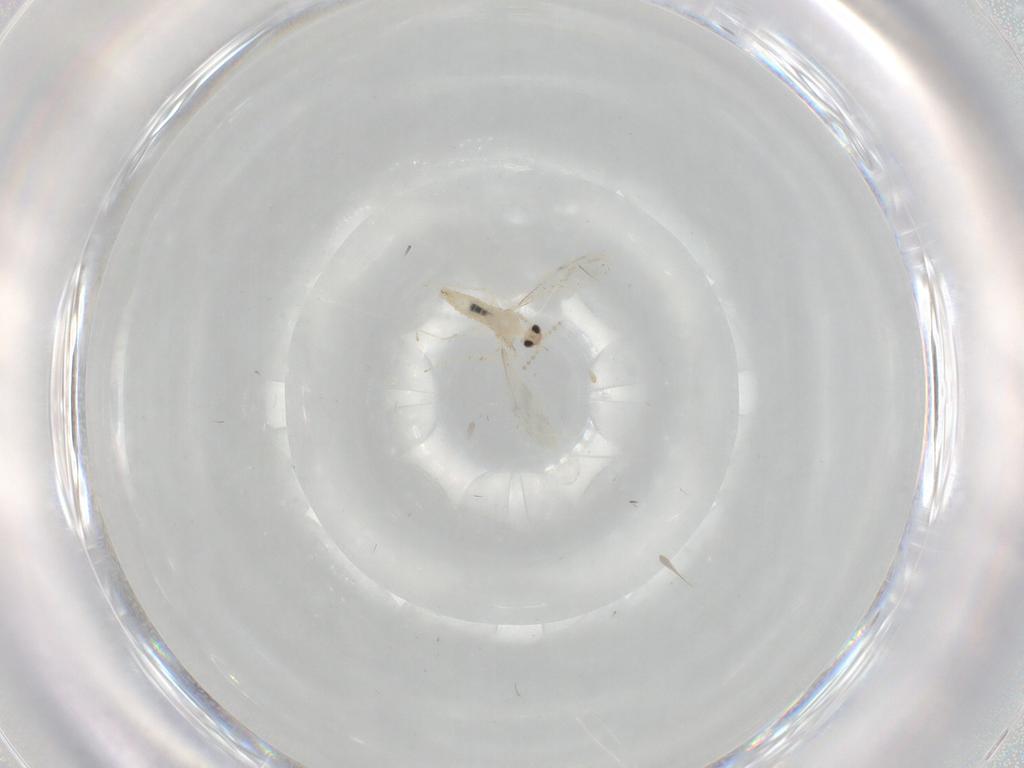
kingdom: Animalia
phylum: Arthropoda
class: Insecta
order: Diptera
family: Cecidomyiidae
